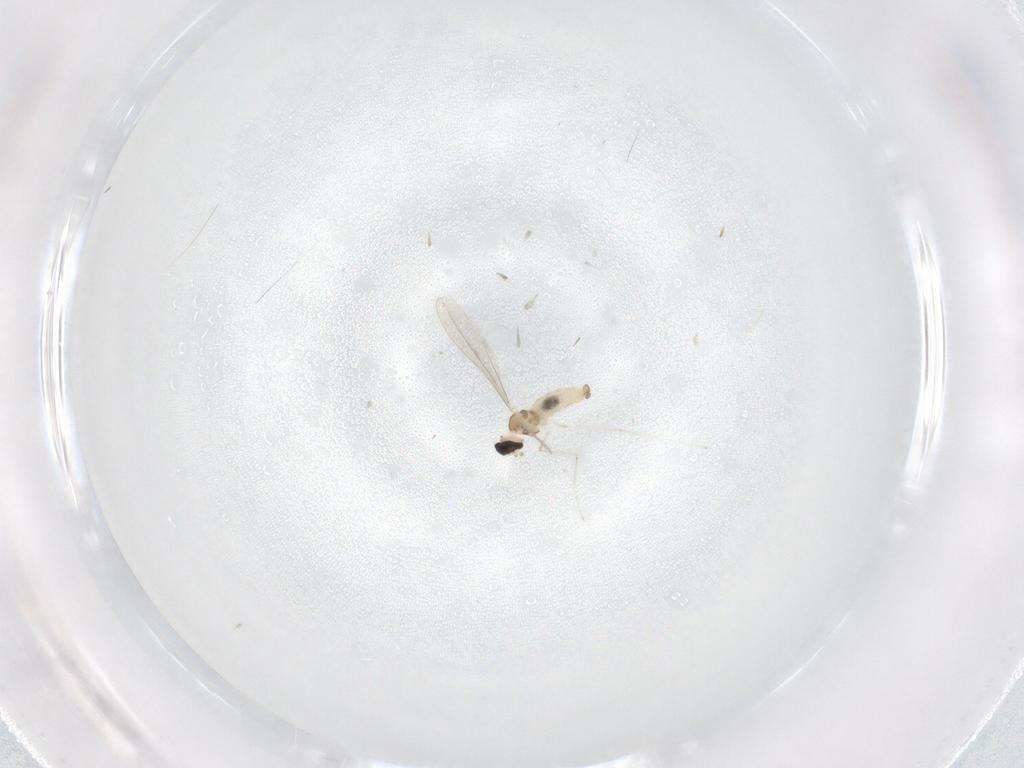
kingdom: Animalia
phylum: Arthropoda
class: Insecta
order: Diptera
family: Cecidomyiidae
